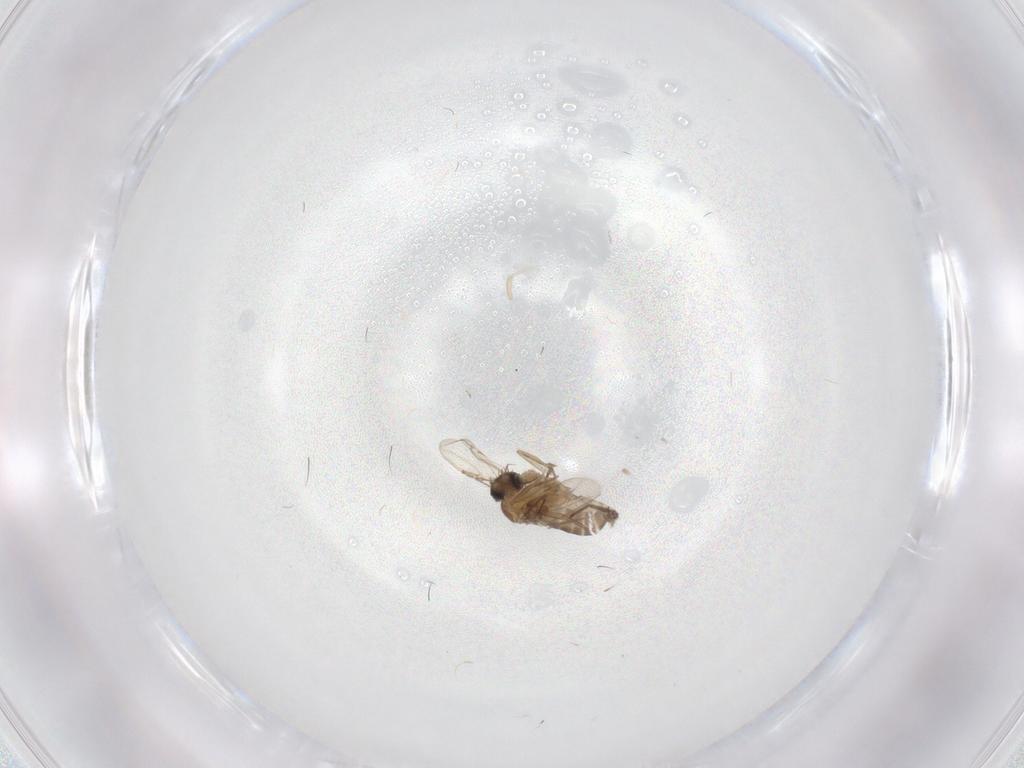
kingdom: Animalia
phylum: Arthropoda
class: Insecta
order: Diptera
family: Phoridae
